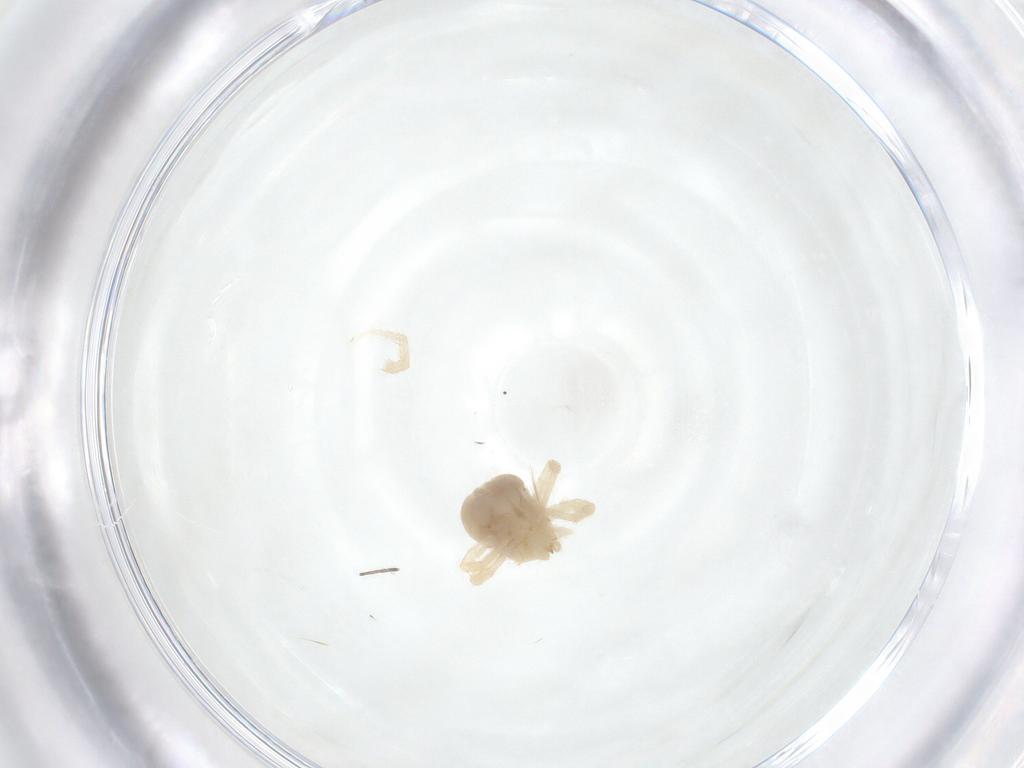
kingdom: Animalia
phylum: Arthropoda
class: Arachnida
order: Trombidiformes
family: Anystidae
